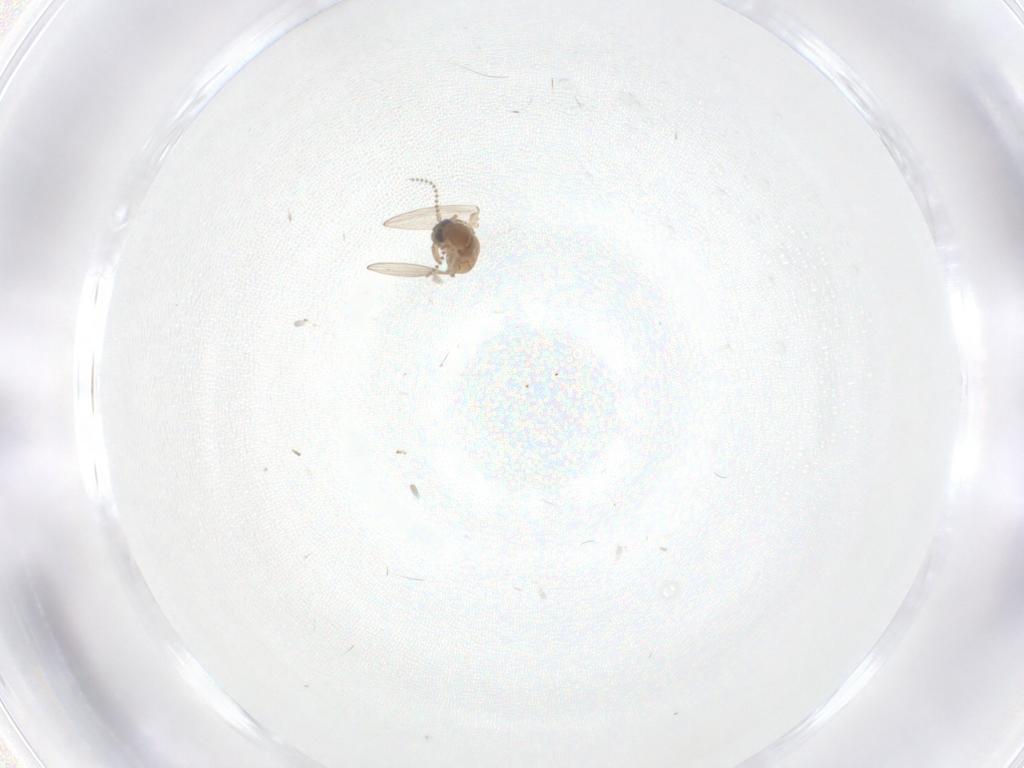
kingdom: Animalia
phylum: Arthropoda
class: Insecta
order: Diptera
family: Psychodidae
